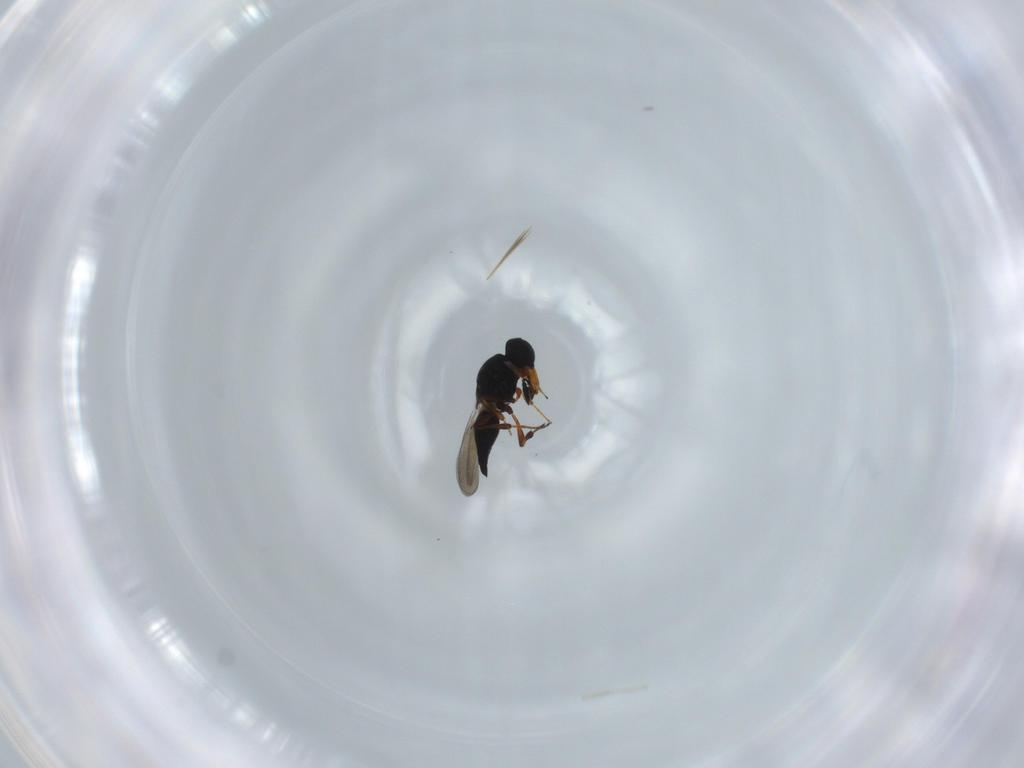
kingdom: Animalia
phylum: Arthropoda
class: Insecta
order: Hymenoptera
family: Platygastridae
